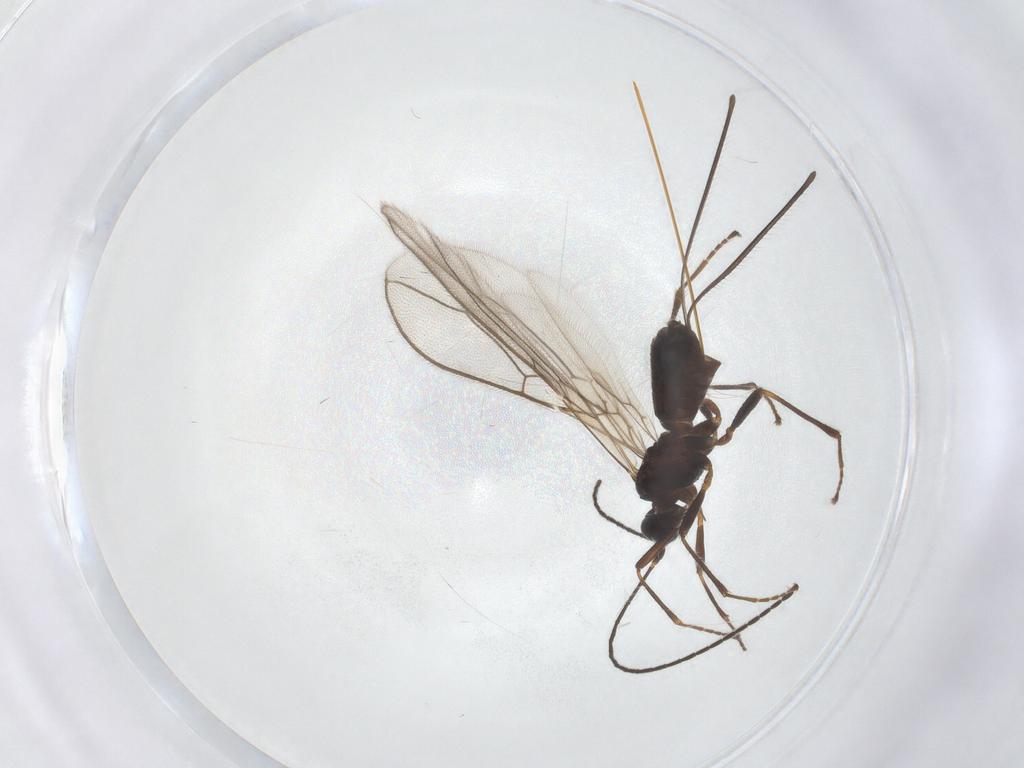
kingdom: Animalia
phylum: Arthropoda
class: Insecta
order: Hymenoptera
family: Braconidae
